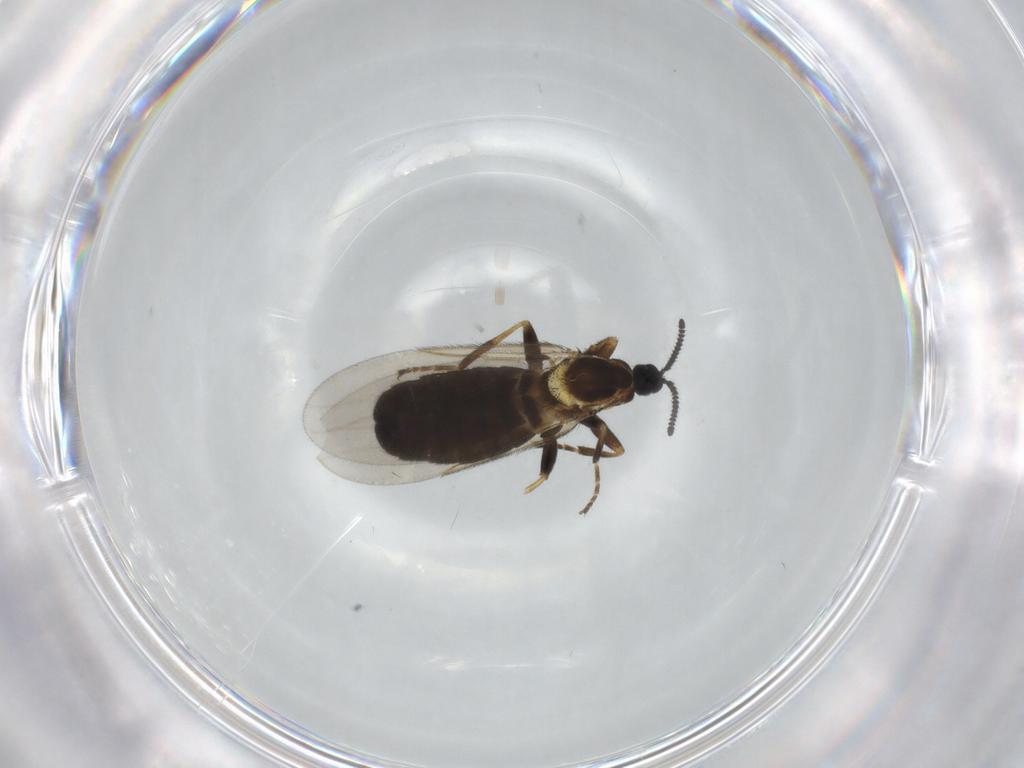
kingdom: Animalia
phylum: Arthropoda
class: Insecta
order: Diptera
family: Scatopsidae
